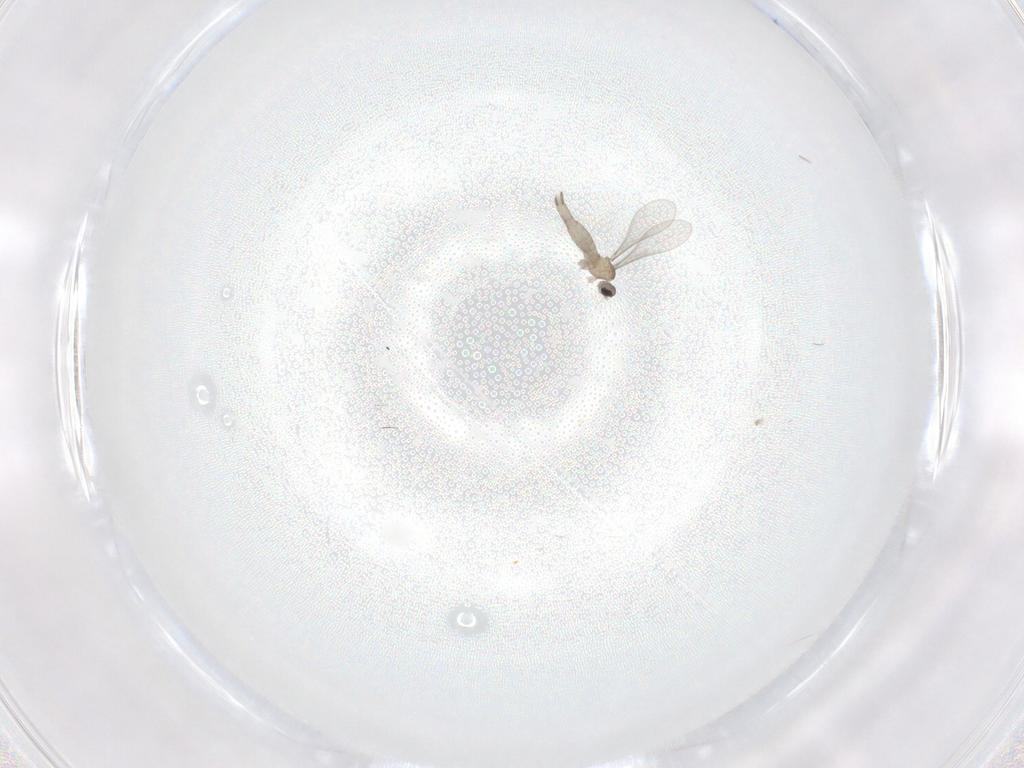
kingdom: Animalia
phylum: Arthropoda
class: Insecta
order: Diptera
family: Cecidomyiidae
